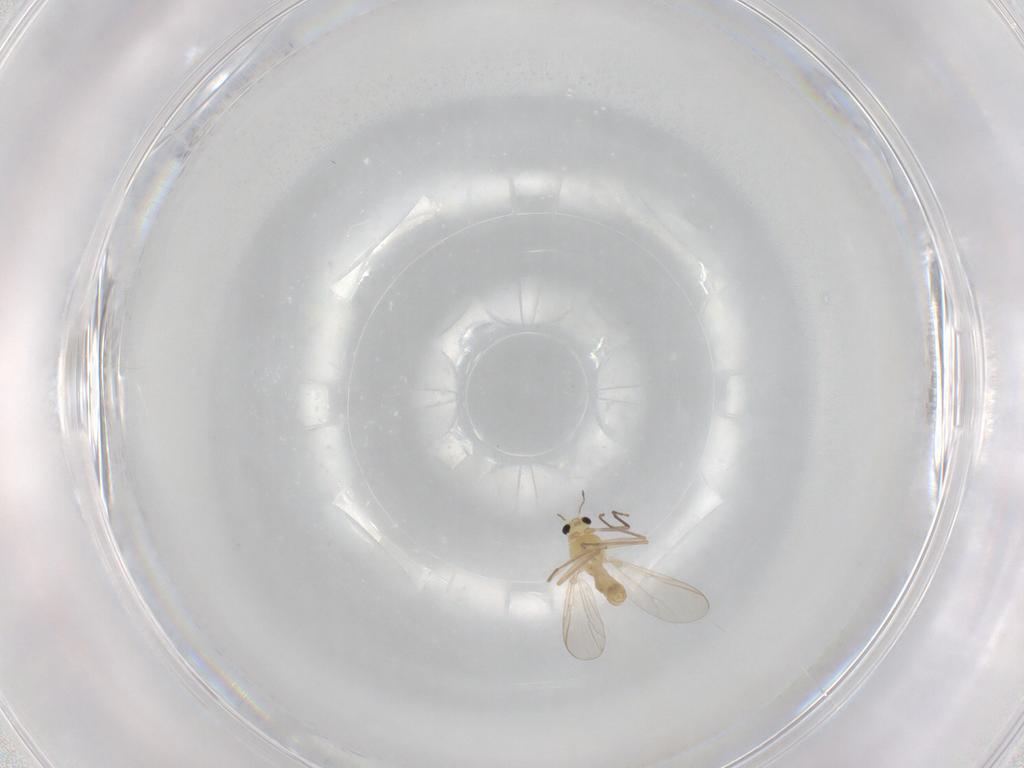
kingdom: Animalia
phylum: Arthropoda
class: Insecta
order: Diptera
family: Chironomidae
